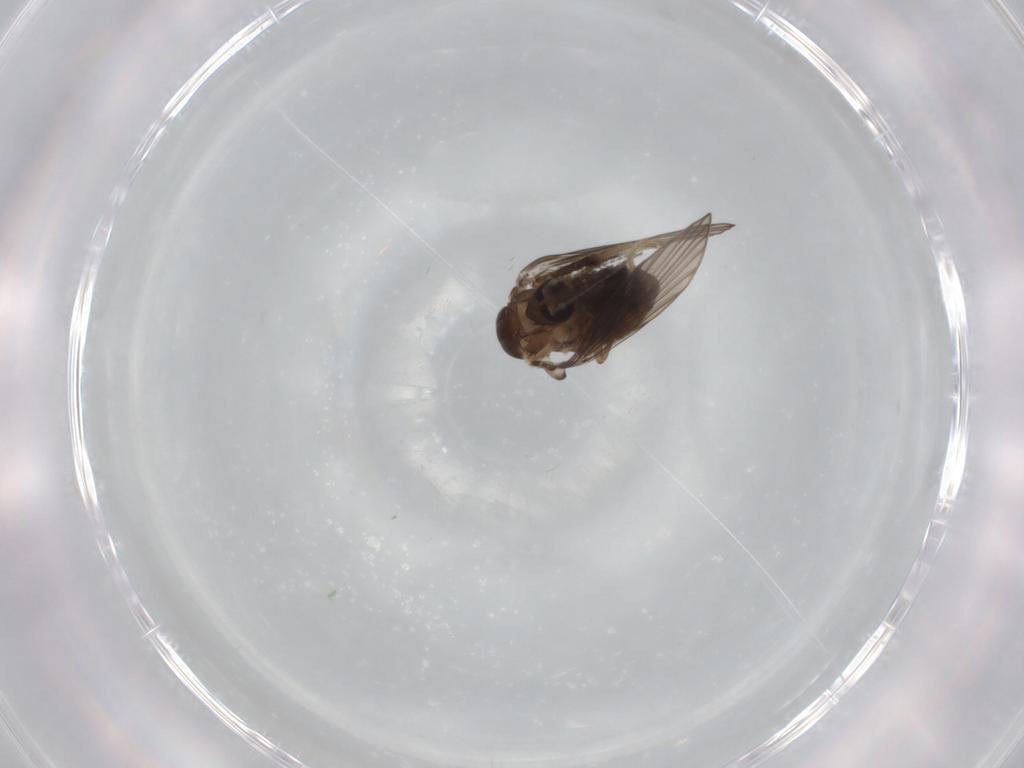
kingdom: Animalia
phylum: Arthropoda
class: Insecta
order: Diptera
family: Psychodidae
